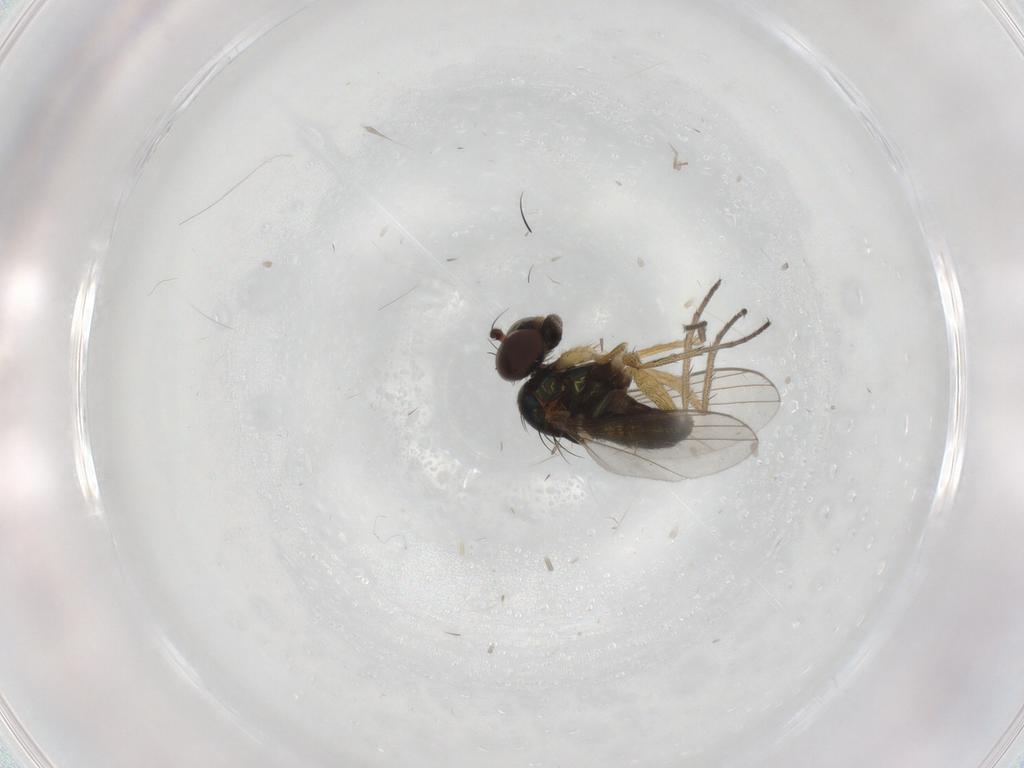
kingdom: Animalia
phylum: Arthropoda
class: Insecta
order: Diptera
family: Dolichopodidae
